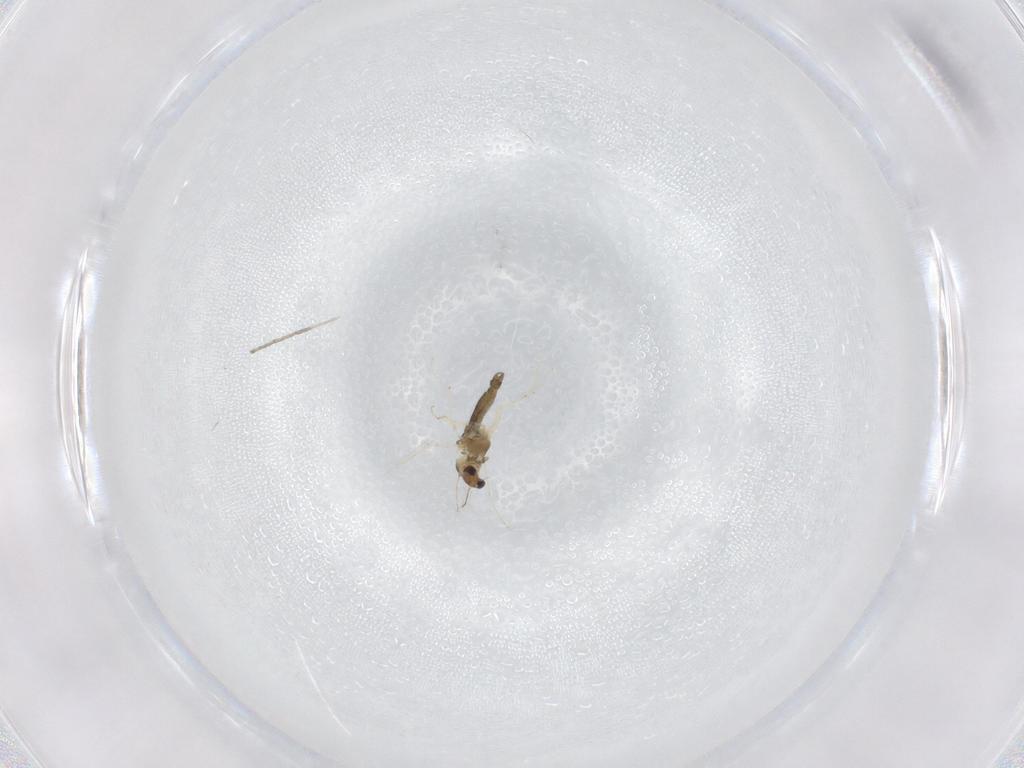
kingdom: Animalia
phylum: Arthropoda
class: Insecta
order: Diptera
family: Chironomidae
